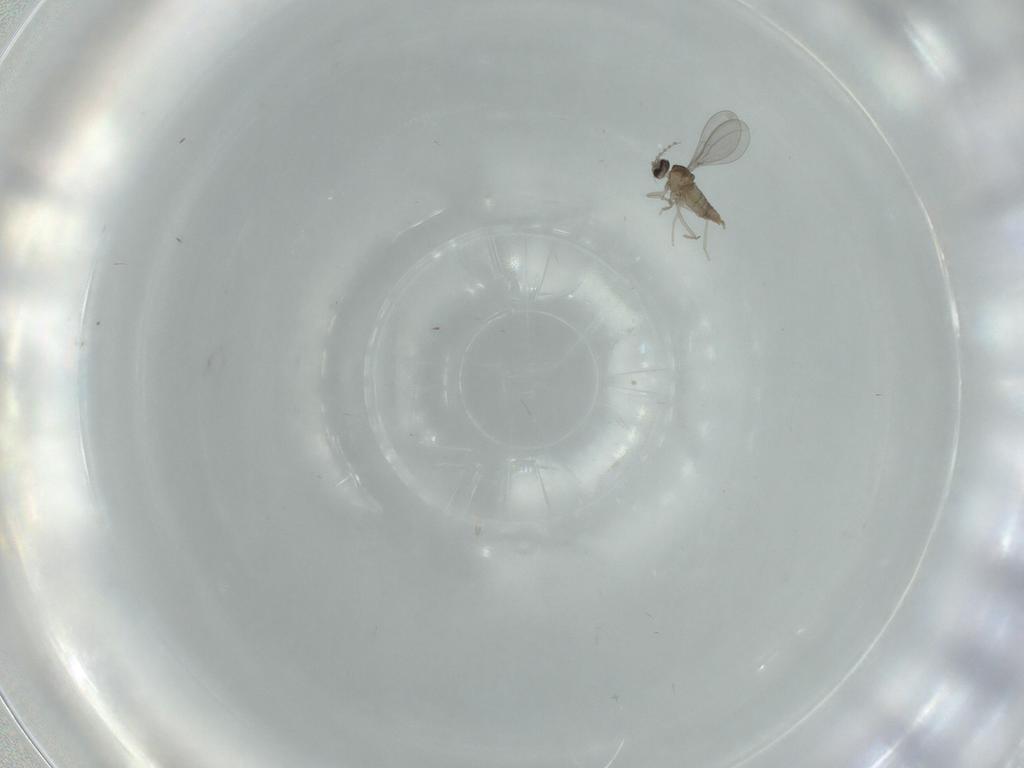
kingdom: Animalia
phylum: Arthropoda
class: Insecta
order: Diptera
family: Cecidomyiidae
